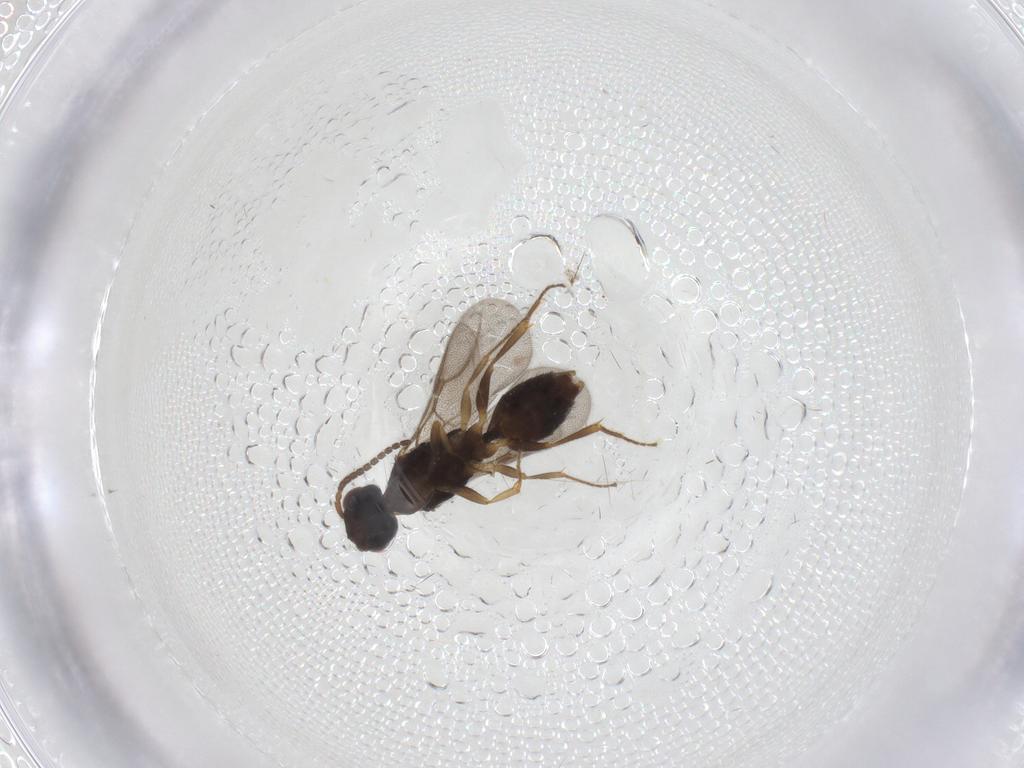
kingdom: Animalia
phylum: Arthropoda
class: Insecta
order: Hymenoptera
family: Bethylidae
